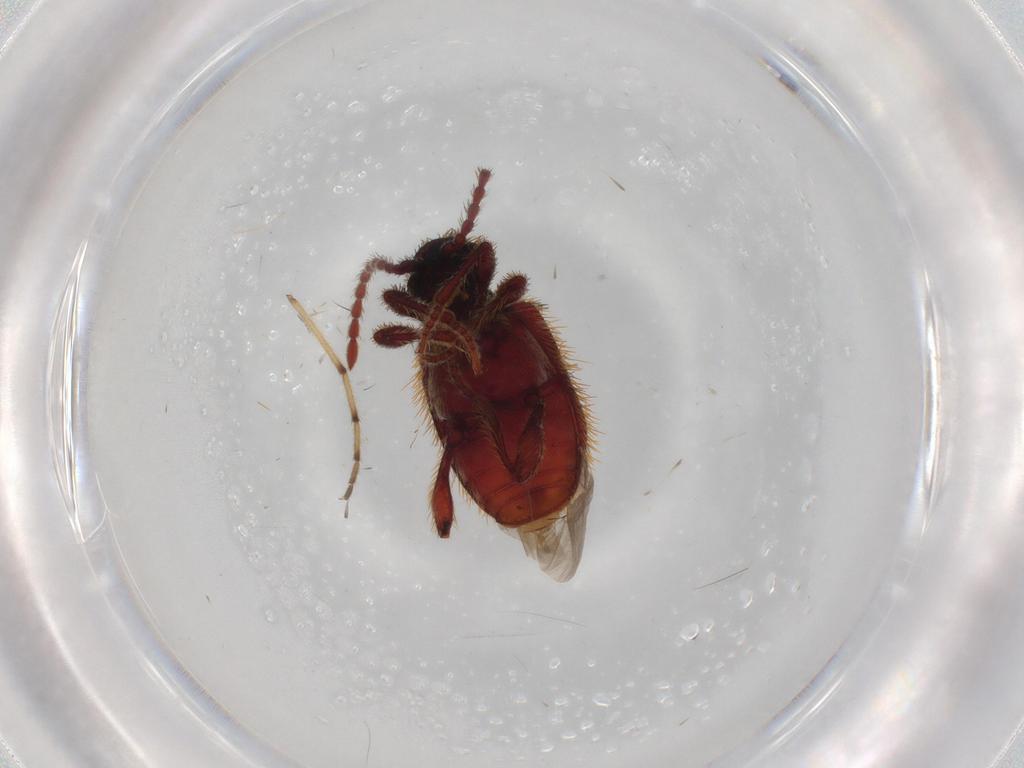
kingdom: Animalia
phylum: Arthropoda
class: Insecta
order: Coleoptera
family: Ptinidae
